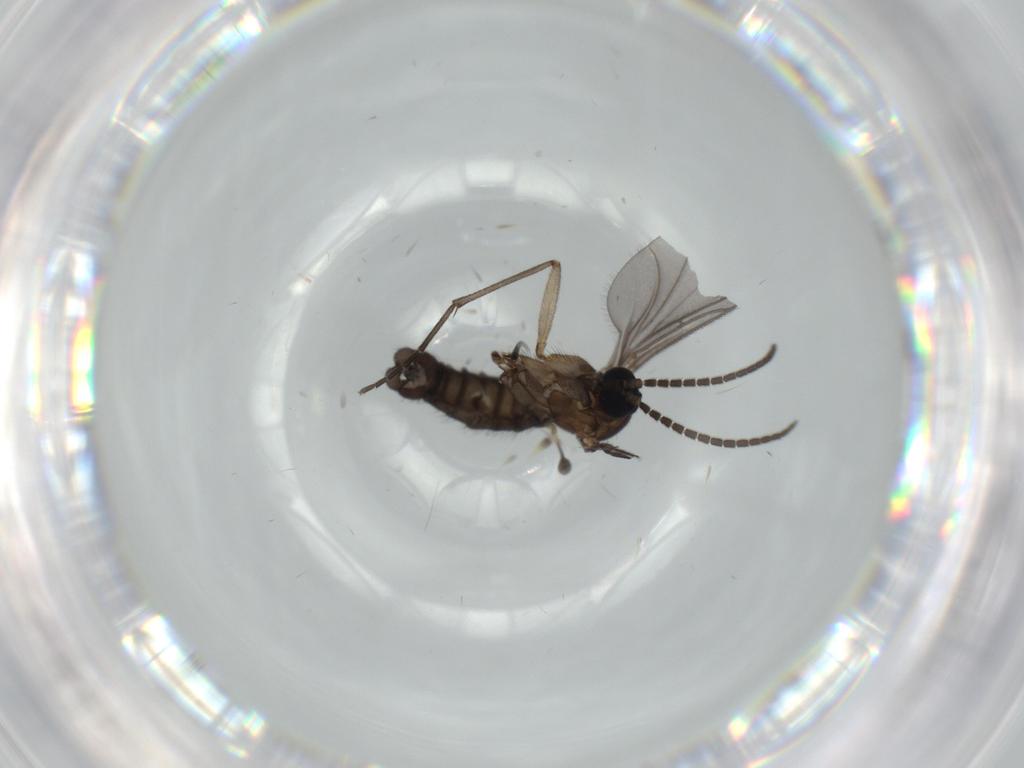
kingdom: Animalia
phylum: Arthropoda
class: Insecta
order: Diptera
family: Sciaridae
